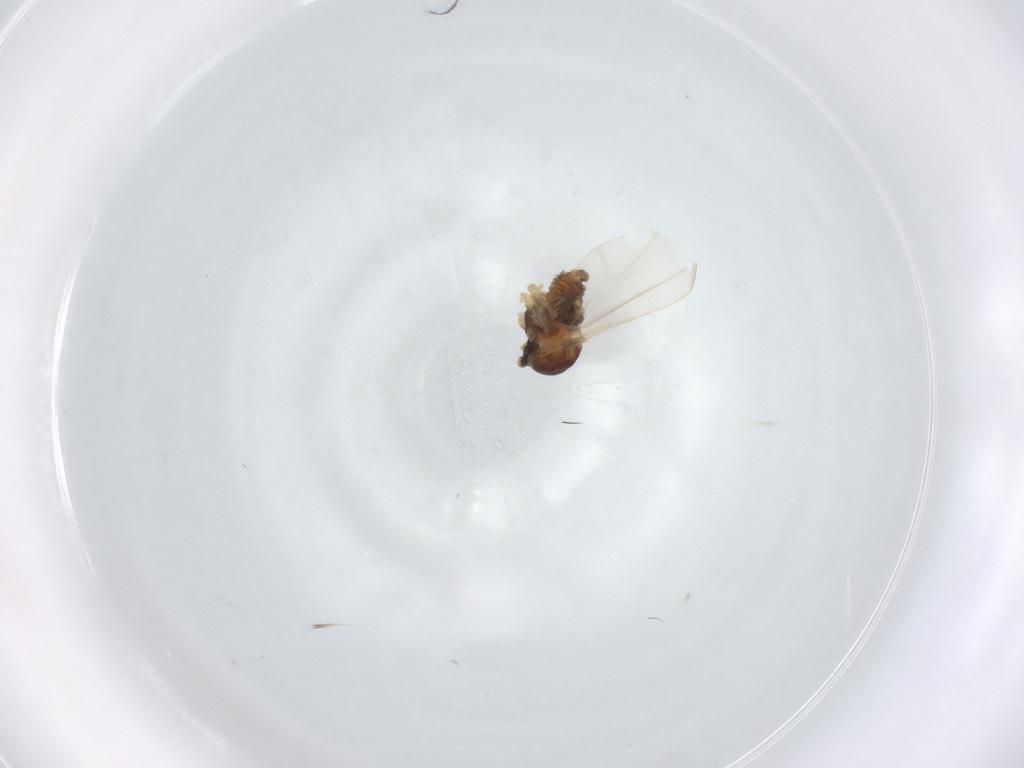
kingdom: Animalia
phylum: Arthropoda
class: Insecta
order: Diptera
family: Cecidomyiidae
